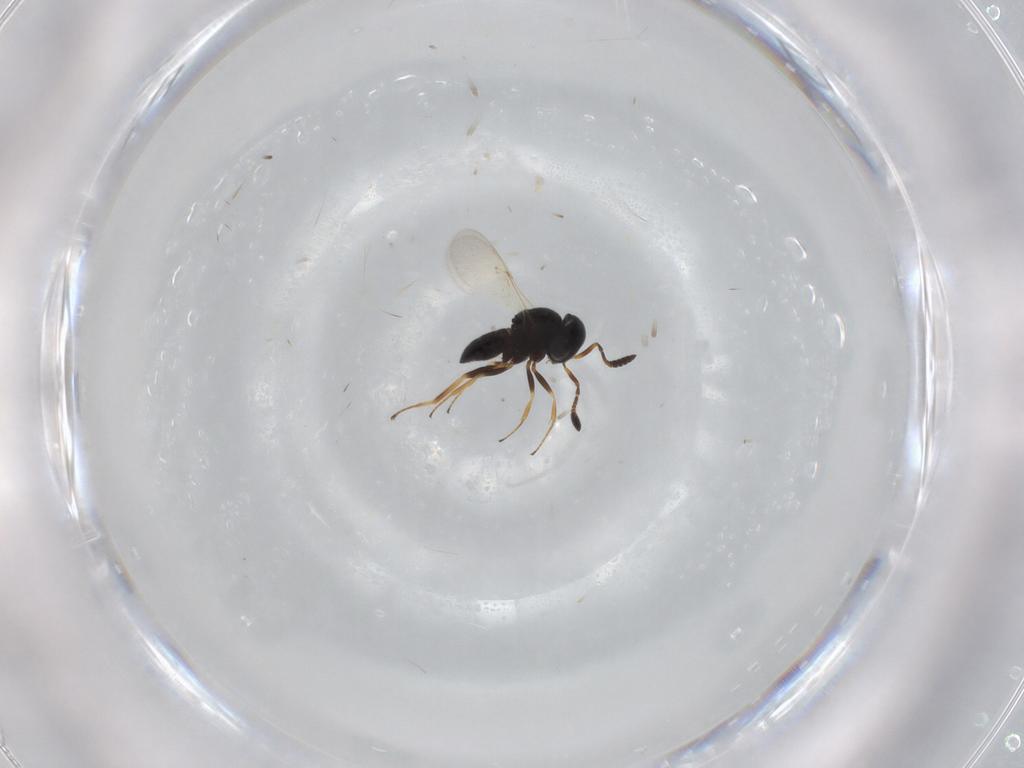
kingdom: Animalia
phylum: Arthropoda
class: Insecta
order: Coleoptera
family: Curculionidae
